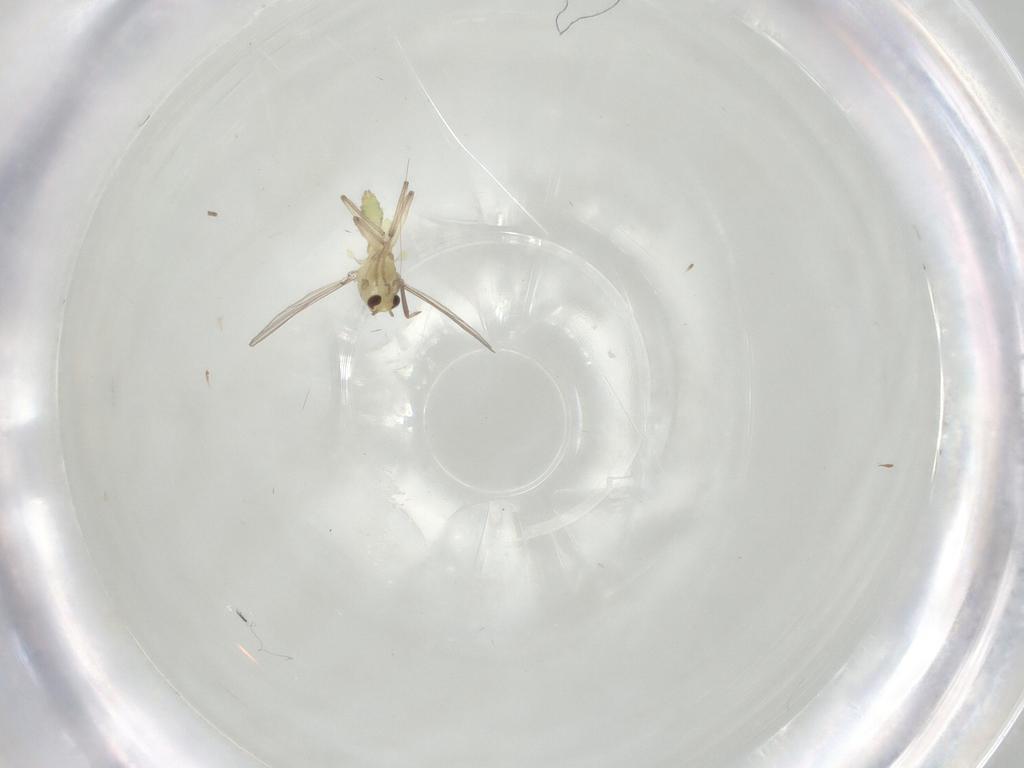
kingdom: Animalia
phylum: Arthropoda
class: Insecta
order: Diptera
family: Chironomidae
